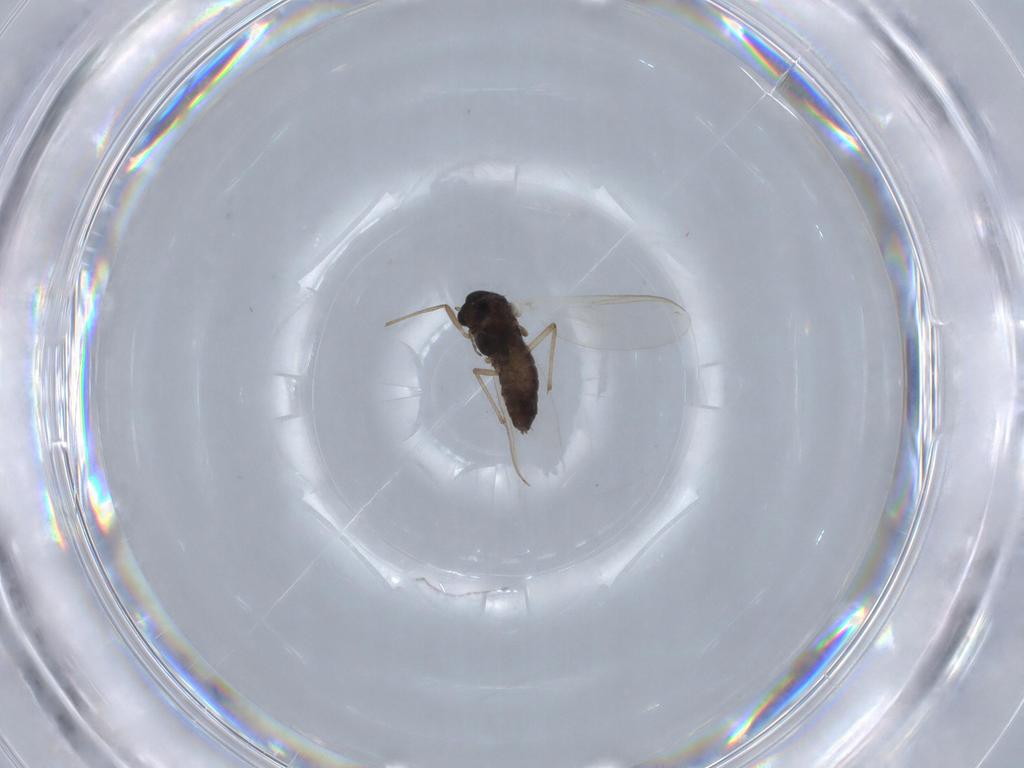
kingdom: Animalia
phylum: Arthropoda
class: Insecta
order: Diptera
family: Chironomidae
